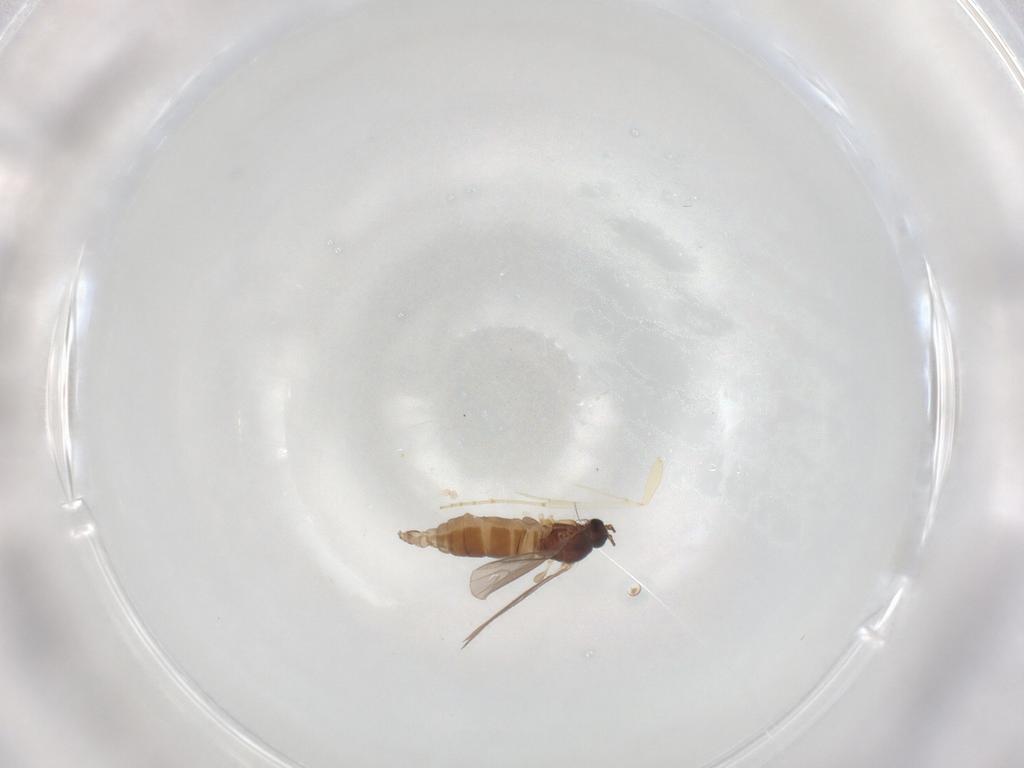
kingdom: Animalia
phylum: Arthropoda
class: Insecta
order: Diptera
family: Sciaridae
